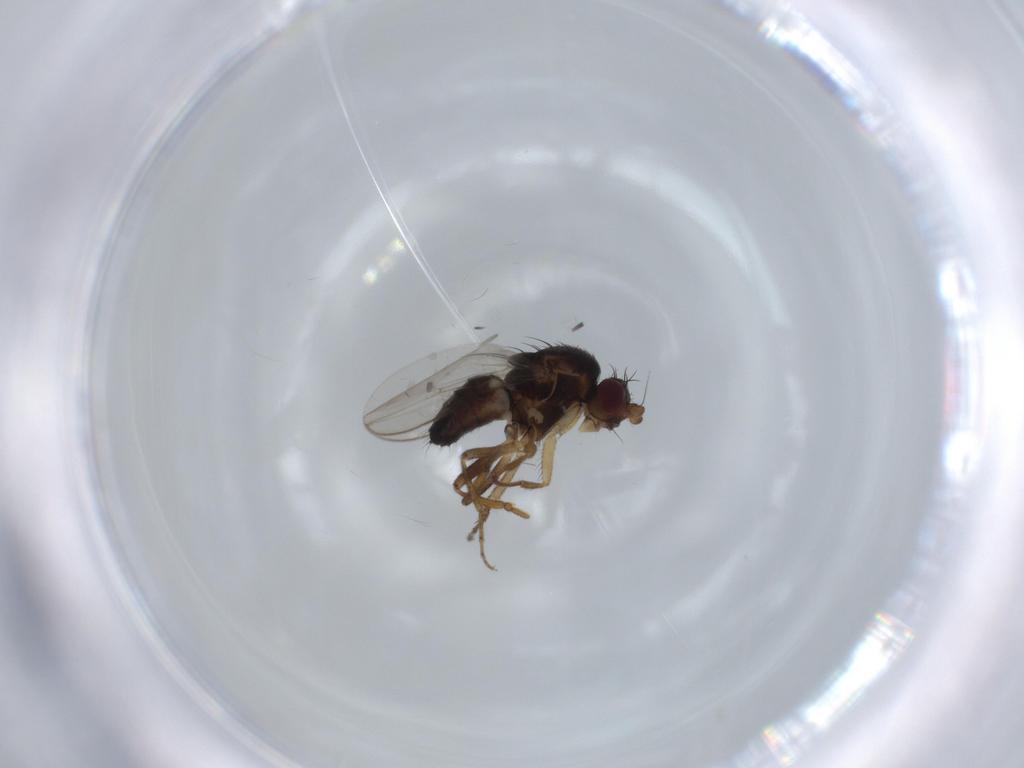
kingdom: Animalia
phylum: Arthropoda
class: Insecta
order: Diptera
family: Sphaeroceridae
